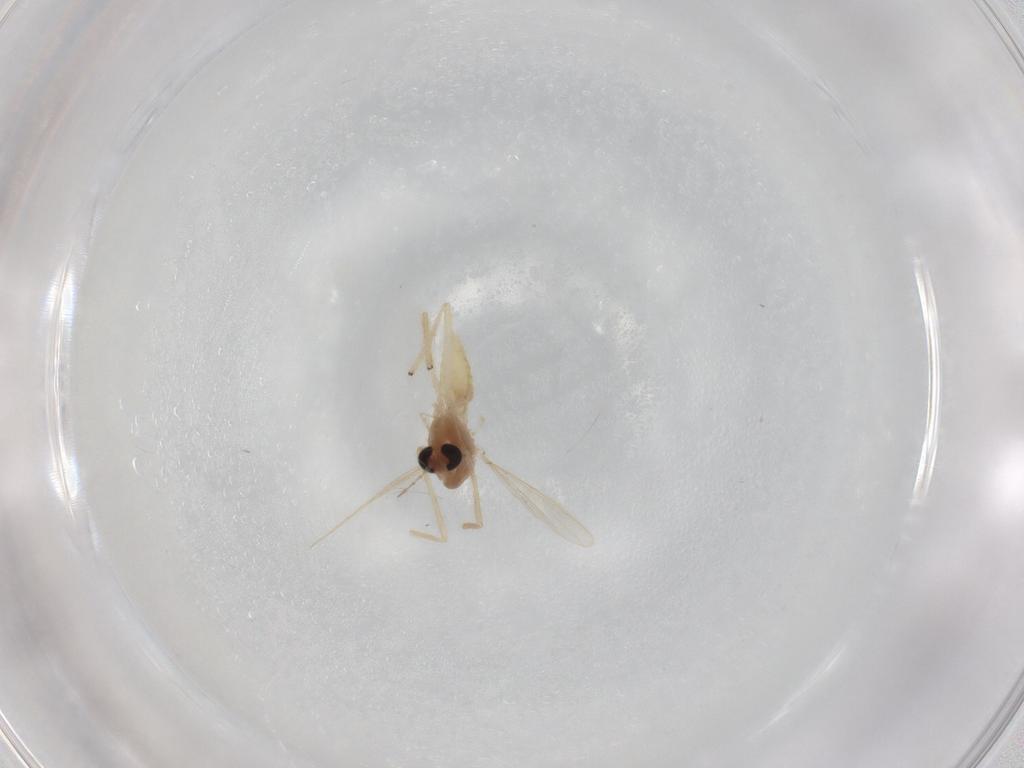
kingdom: Animalia
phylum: Arthropoda
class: Insecta
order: Diptera
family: Chironomidae
